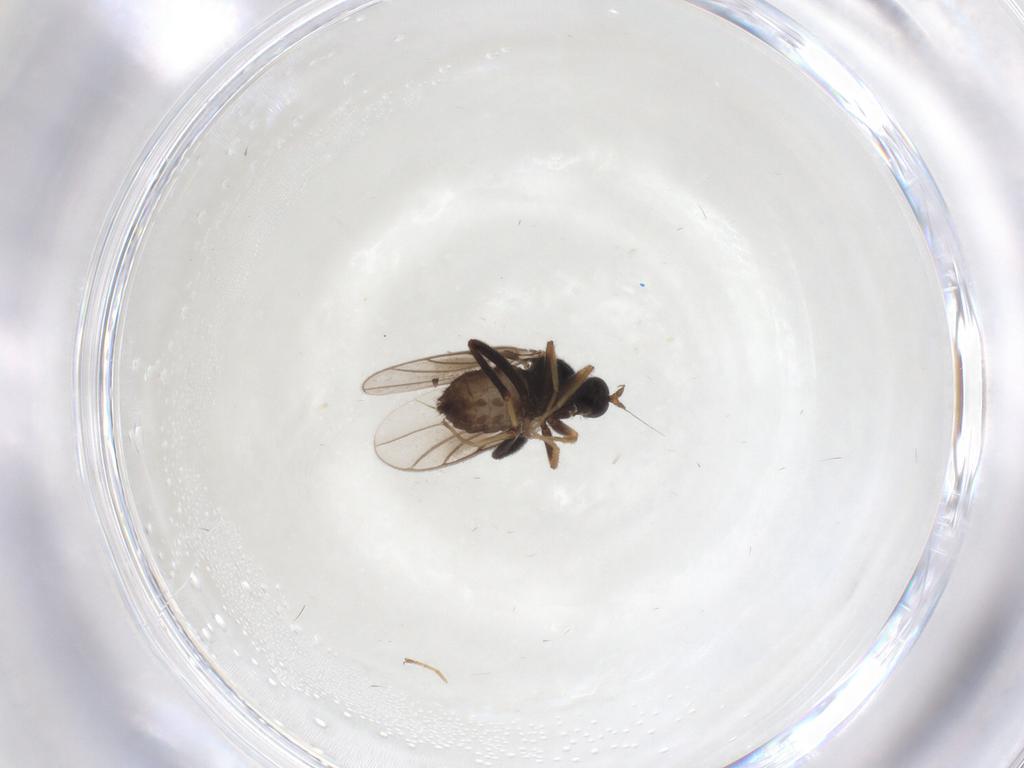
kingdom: Animalia
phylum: Arthropoda
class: Insecta
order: Diptera
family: Hybotidae
